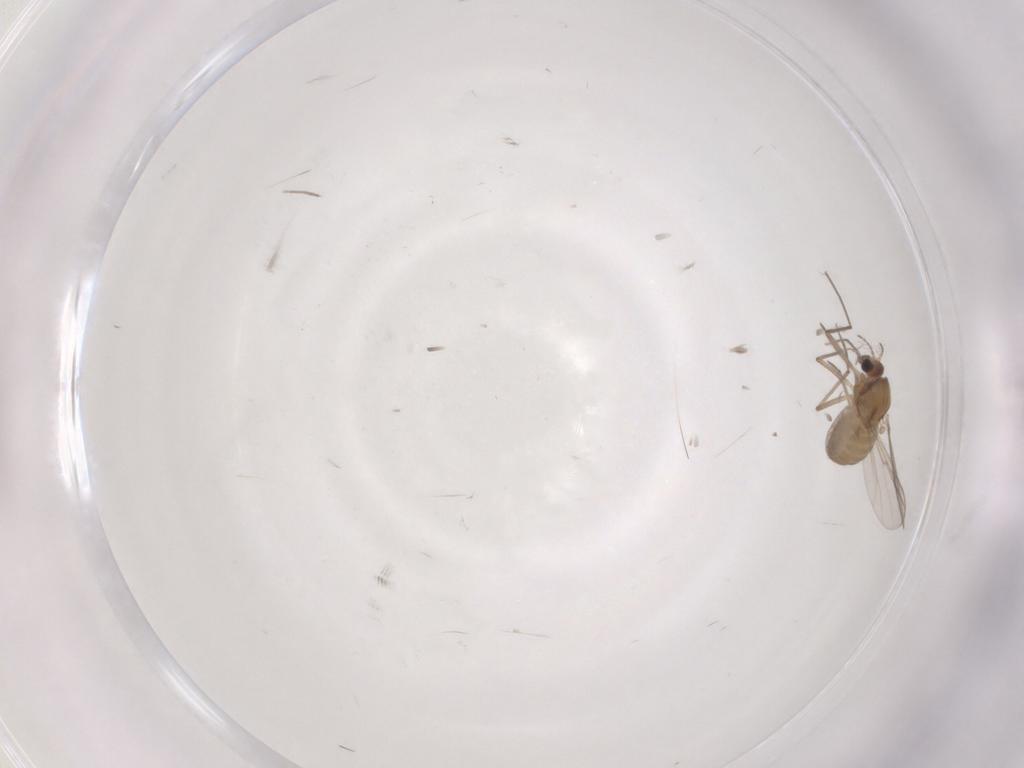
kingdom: Animalia
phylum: Arthropoda
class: Insecta
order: Diptera
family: Chironomidae
